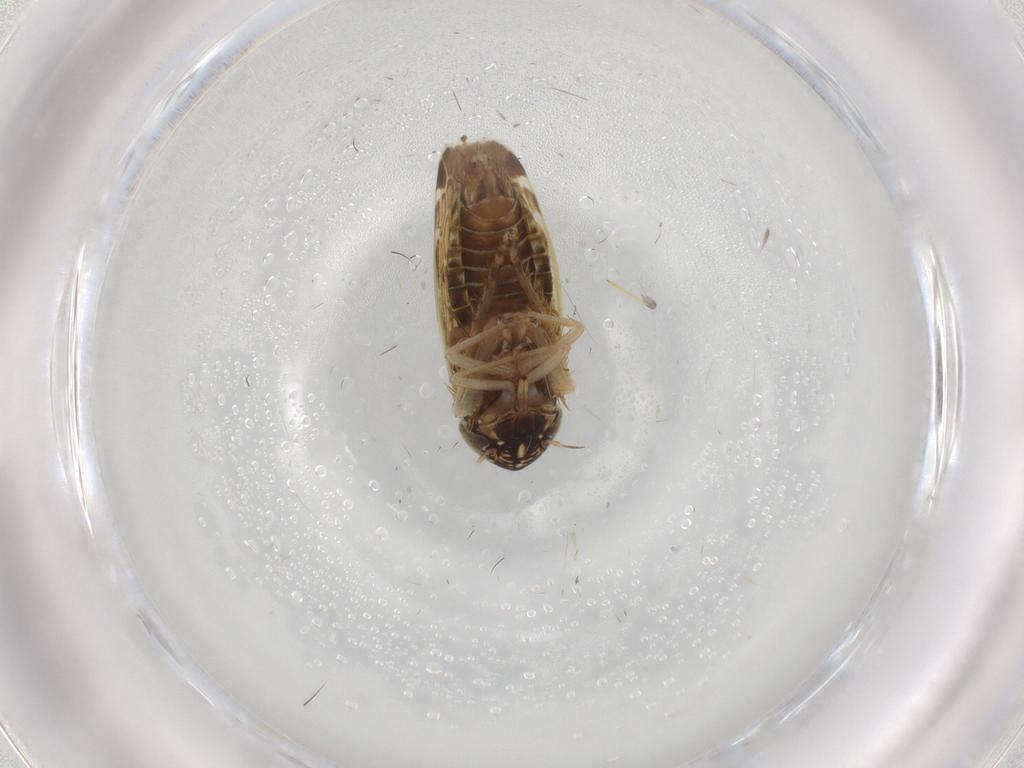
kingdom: Animalia
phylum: Arthropoda
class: Insecta
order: Hemiptera
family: Cicadellidae
